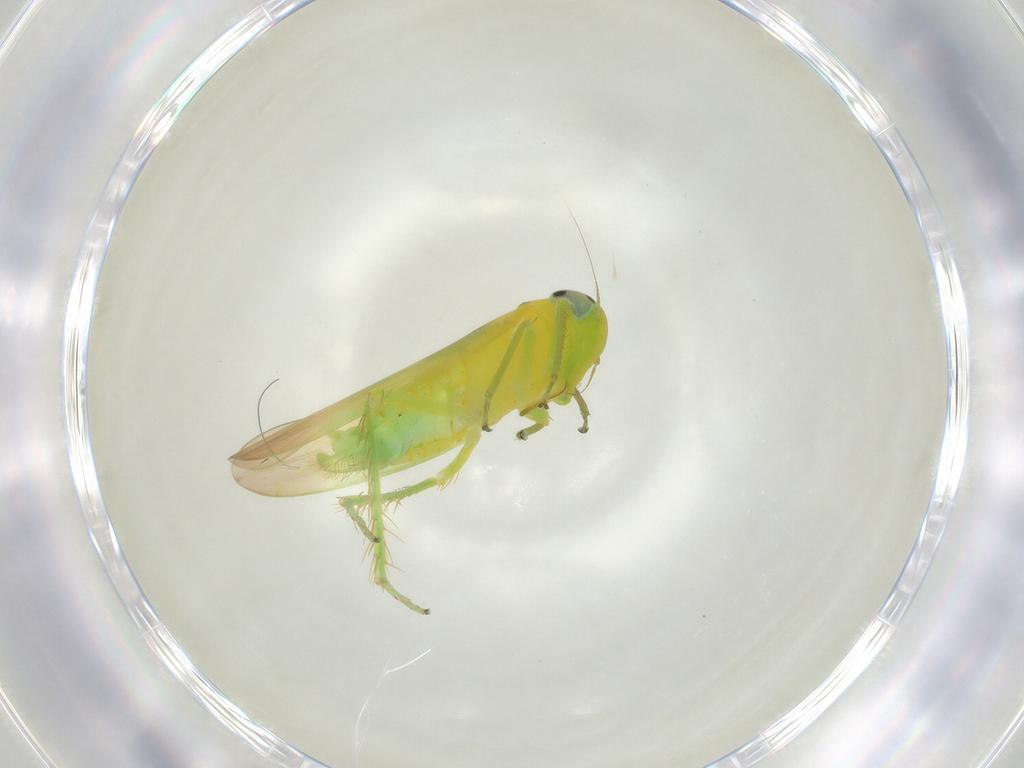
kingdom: Animalia
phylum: Arthropoda
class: Insecta
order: Hemiptera
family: Cicadellidae
